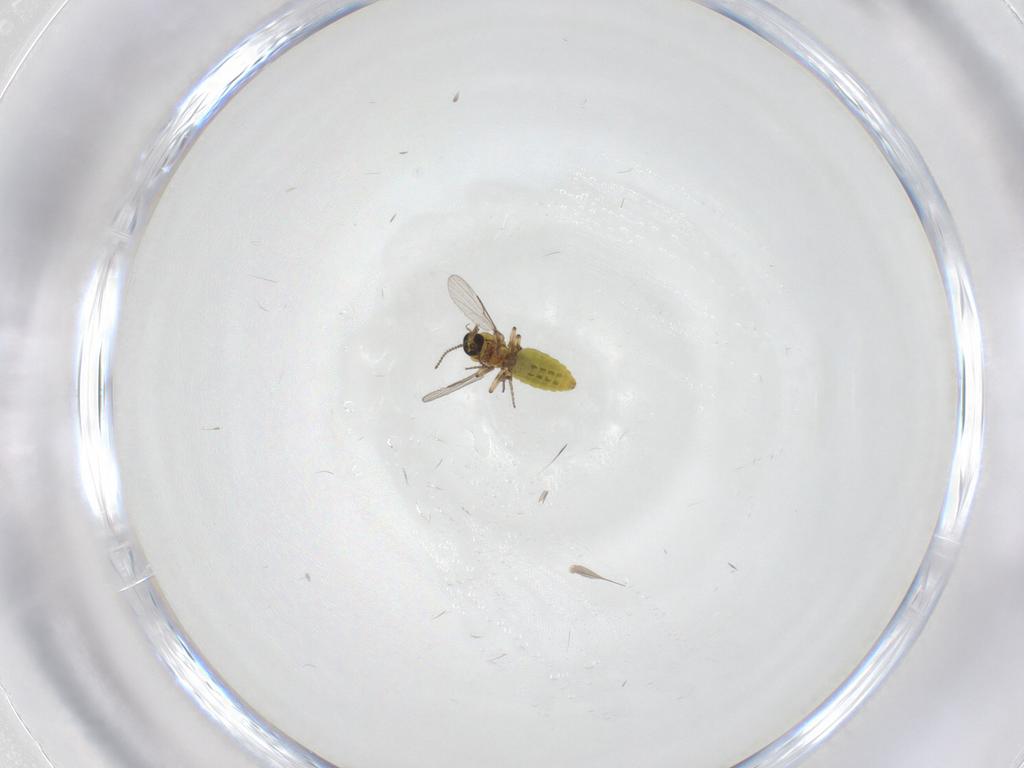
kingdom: Animalia
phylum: Arthropoda
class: Insecta
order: Diptera
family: Ceratopogonidae
